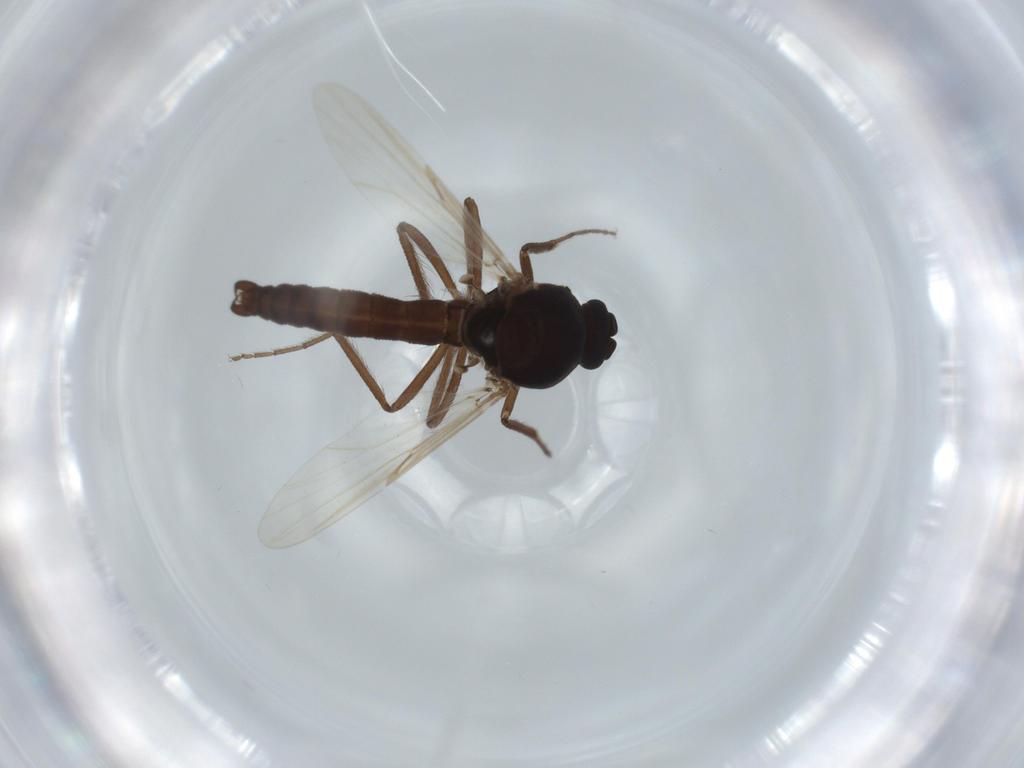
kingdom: Animalia
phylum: Arthropoda
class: Insecta
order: Diptera
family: Ceratopogonidae
